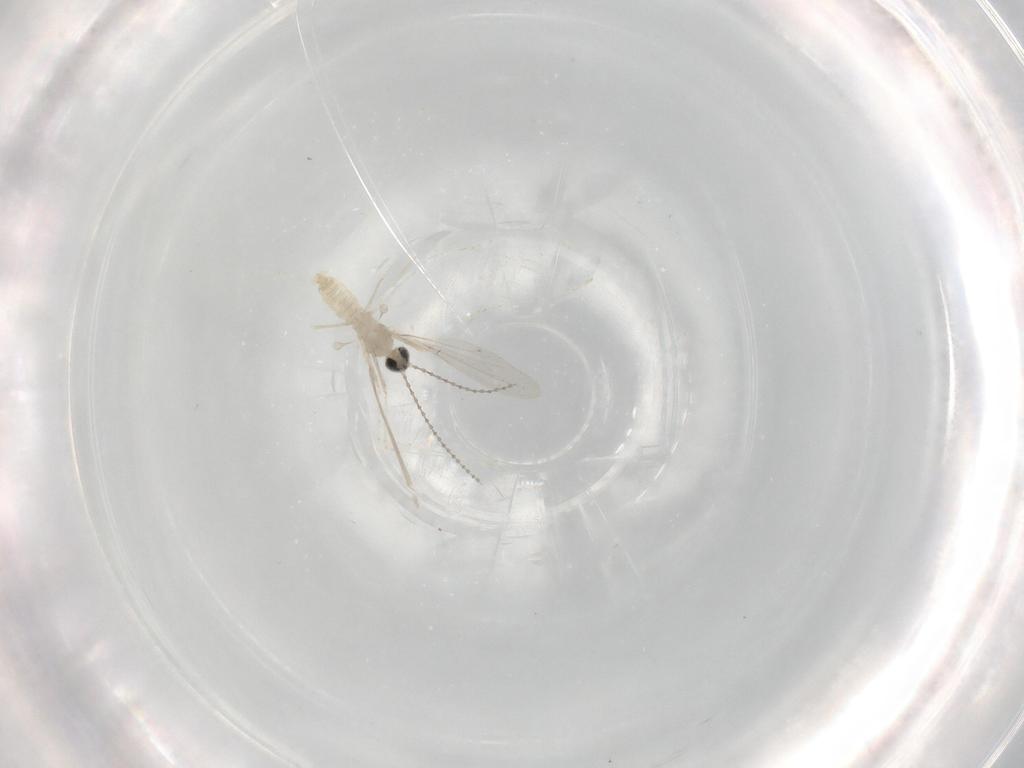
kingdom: Animalia
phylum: Arthropoda
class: Insecta
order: Diptera
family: Cecidomyiidae
